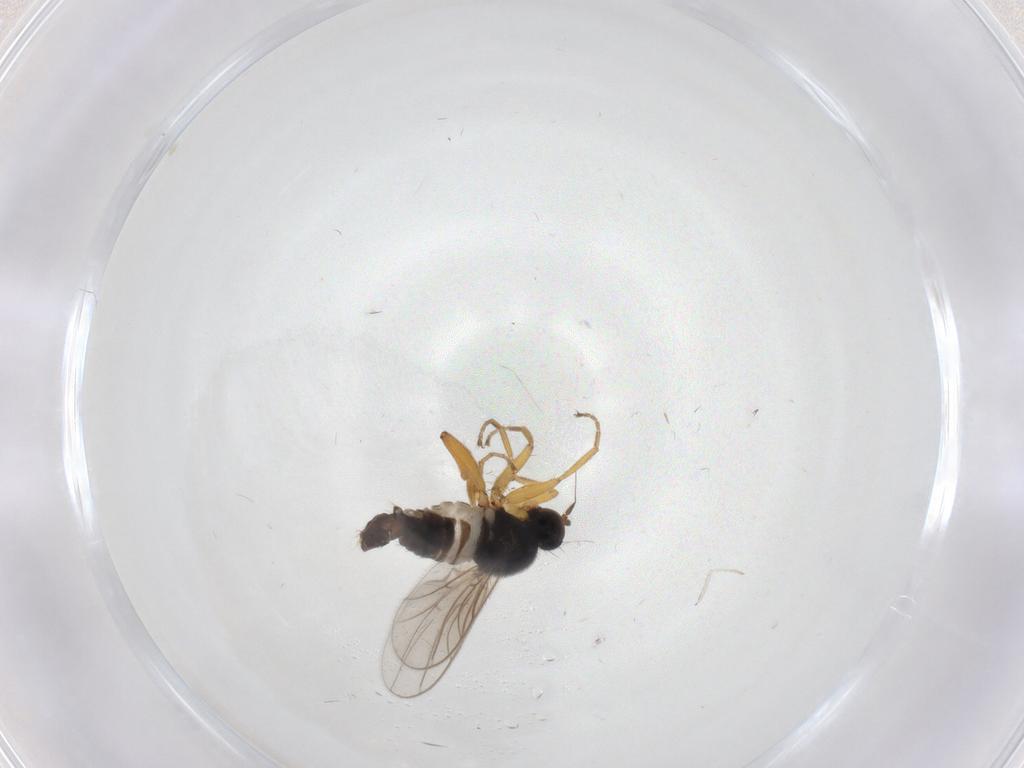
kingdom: Animalia
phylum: Arthropoda
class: Insecta
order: Diptera
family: Hybotidae
